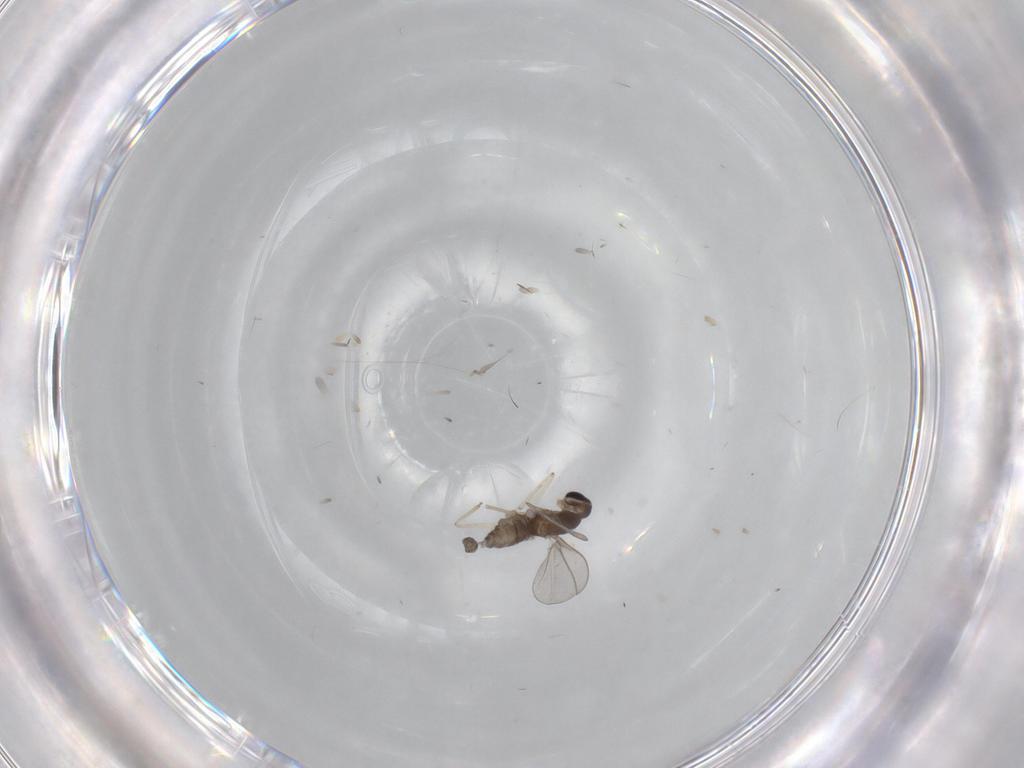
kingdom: Animalia
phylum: Arthropoda
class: Insecta
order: Diptera
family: Cecidomyiidae
